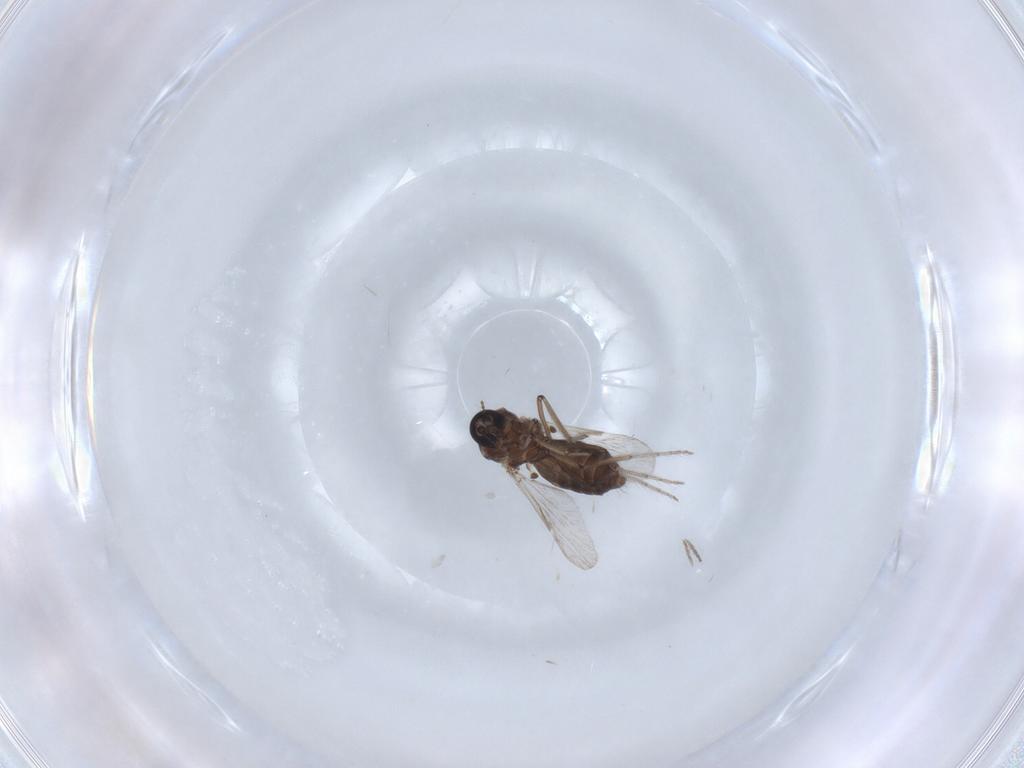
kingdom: Animalia
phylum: Arthropoda
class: Insecta
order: Diptera
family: Ceratopogonidae
